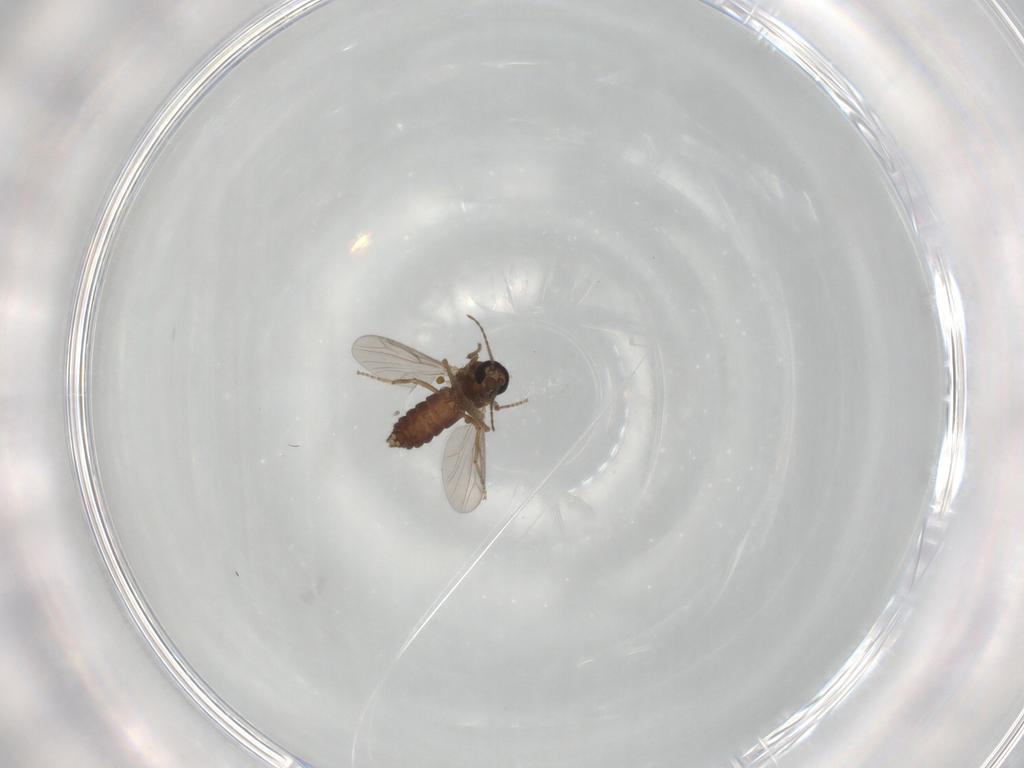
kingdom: Animalia
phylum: Arthropoda
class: Insecta
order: Diptera
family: Ceratopogonidae
